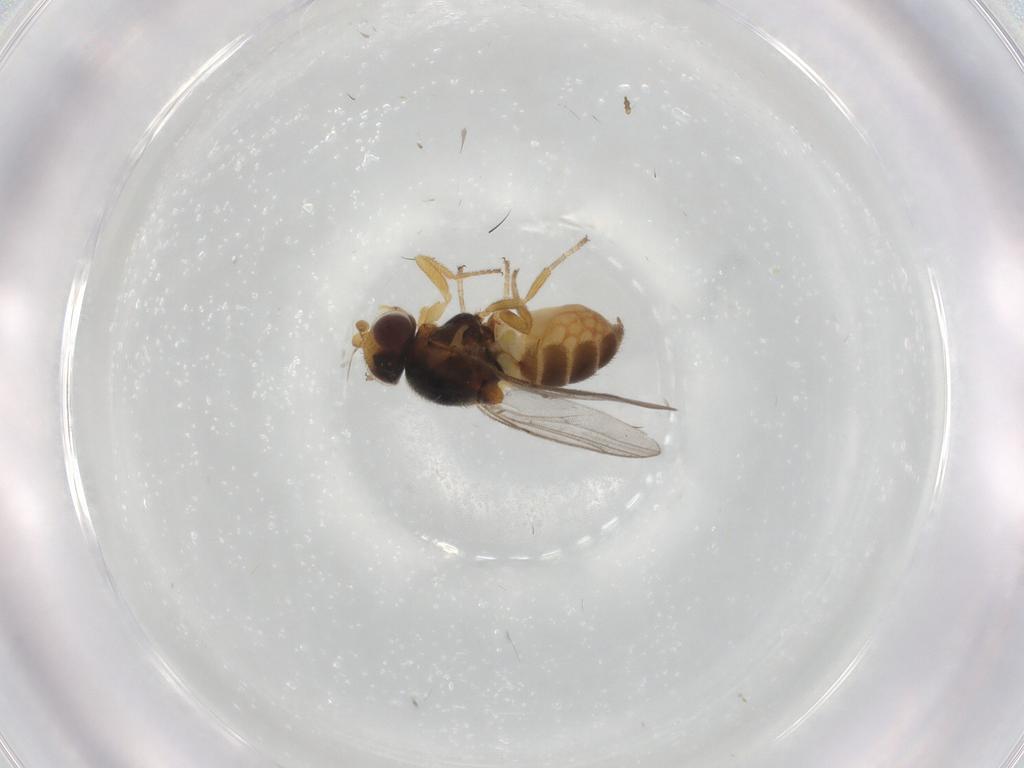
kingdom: Animalia
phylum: Arthropoda
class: Insecta
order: Diptera
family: Chloropidae
